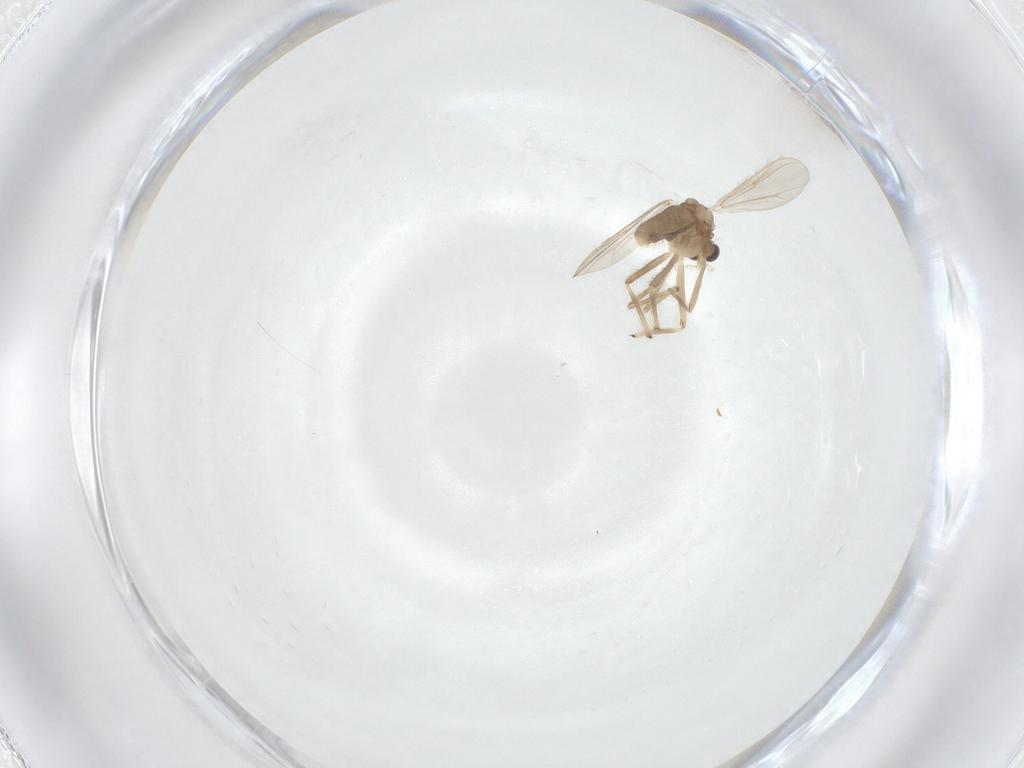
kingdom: Animalia
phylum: Arthropoda
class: Insecta
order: Diptera
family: Chironomidae
